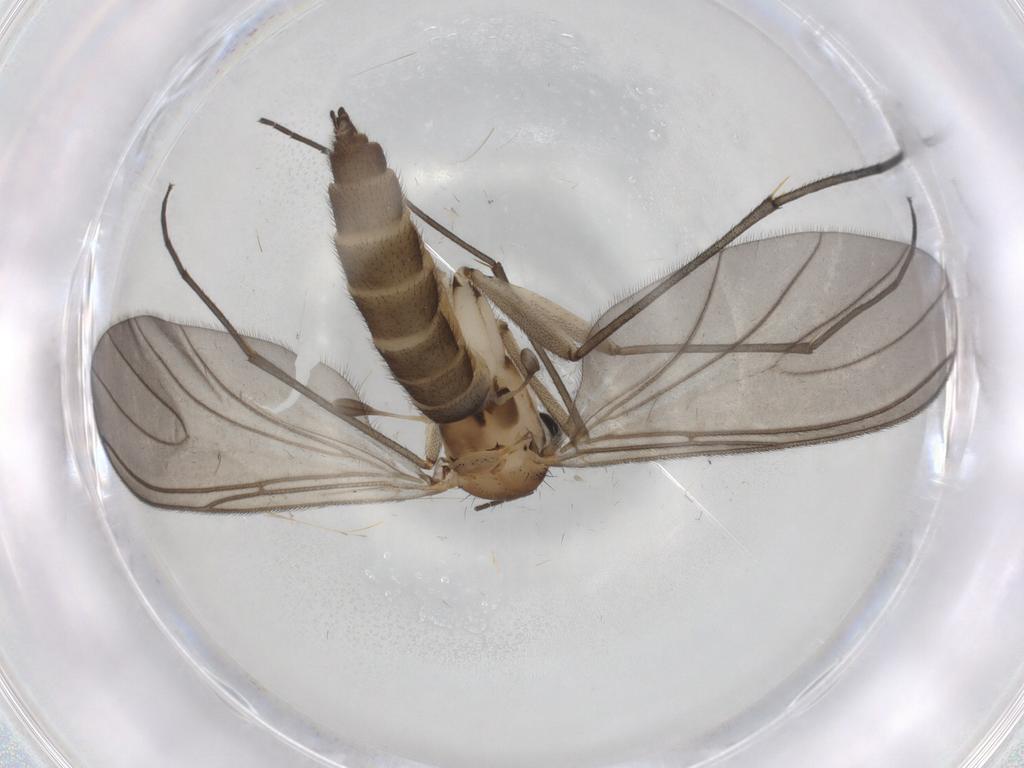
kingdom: Animalia
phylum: Arthropoda
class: Insecta
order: Diptera
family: Sciaridae
